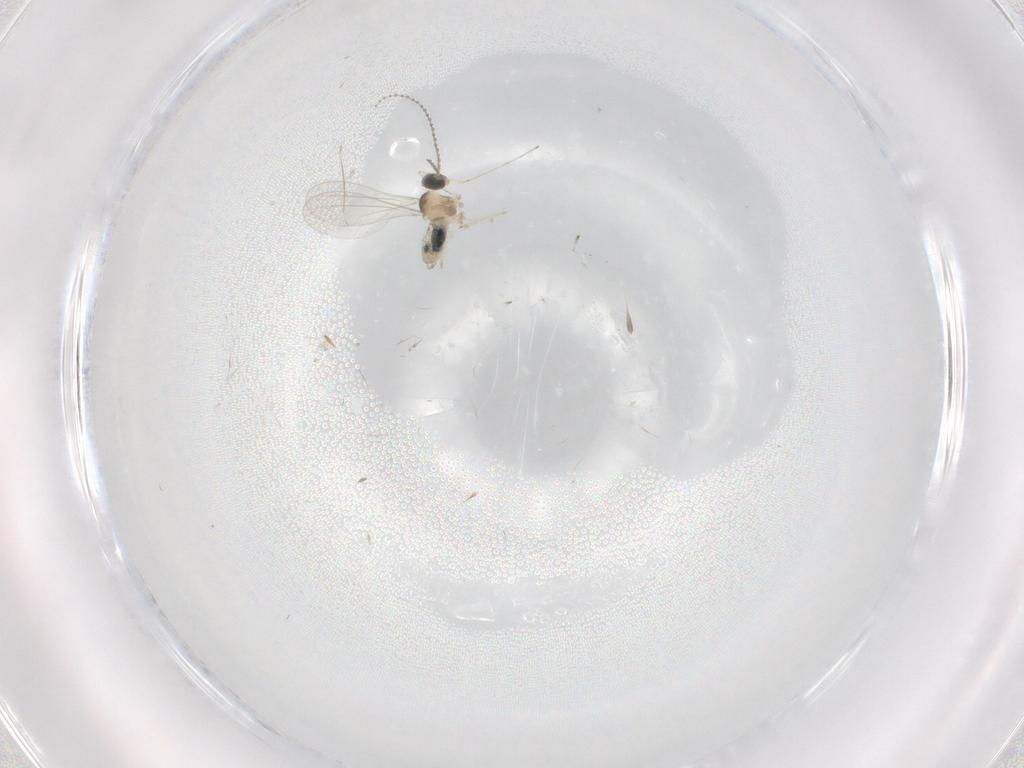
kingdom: Animalia
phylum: Arthropoda
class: Insecta
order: Diptera
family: Cecidomyiidae
